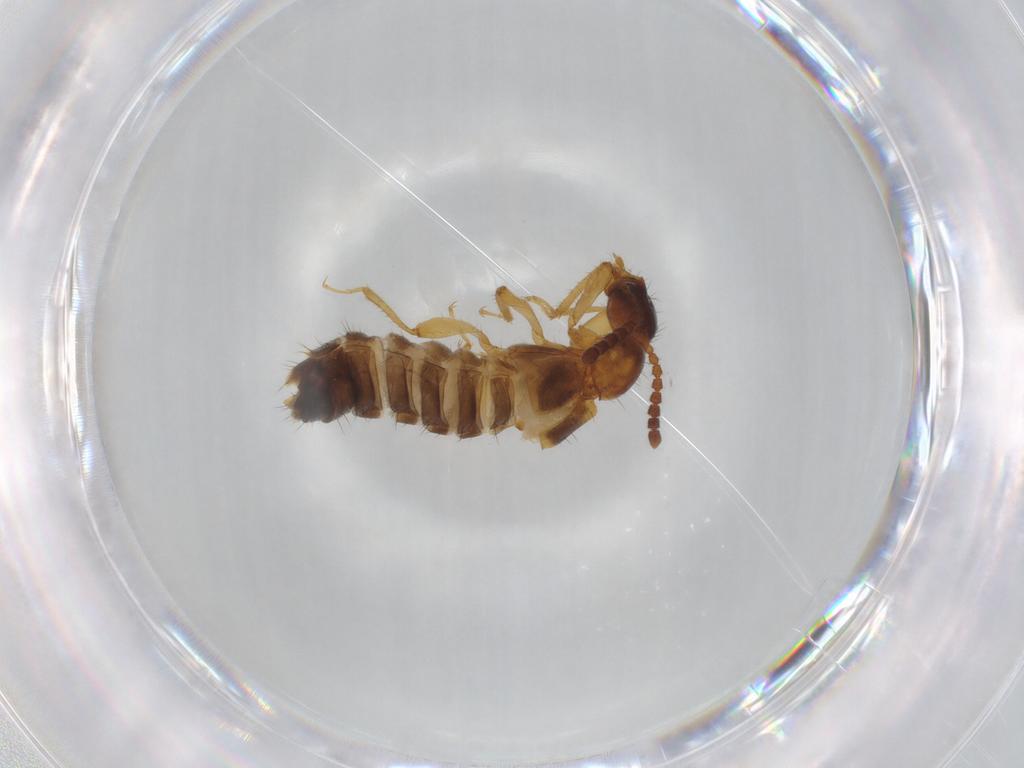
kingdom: Animalia
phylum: Arthropoda
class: Insecta
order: Coleoptera
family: Staphylinidae
